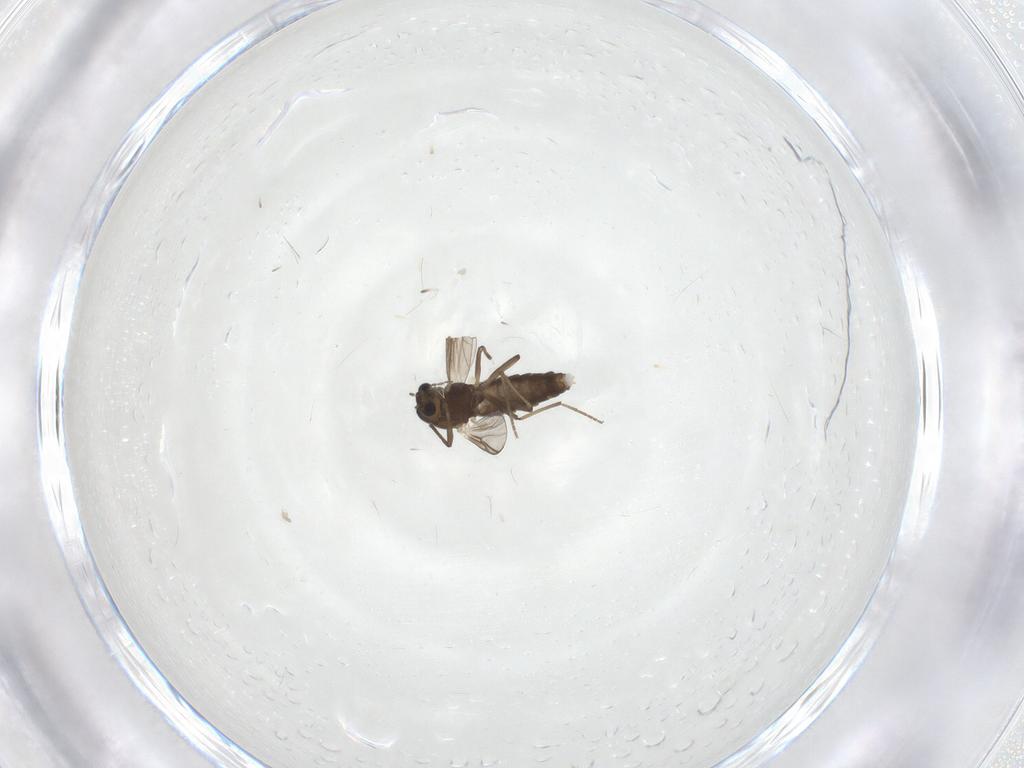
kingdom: Animalia
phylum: Arthropoda
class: Insecta
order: Diptera
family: Chironomidae
